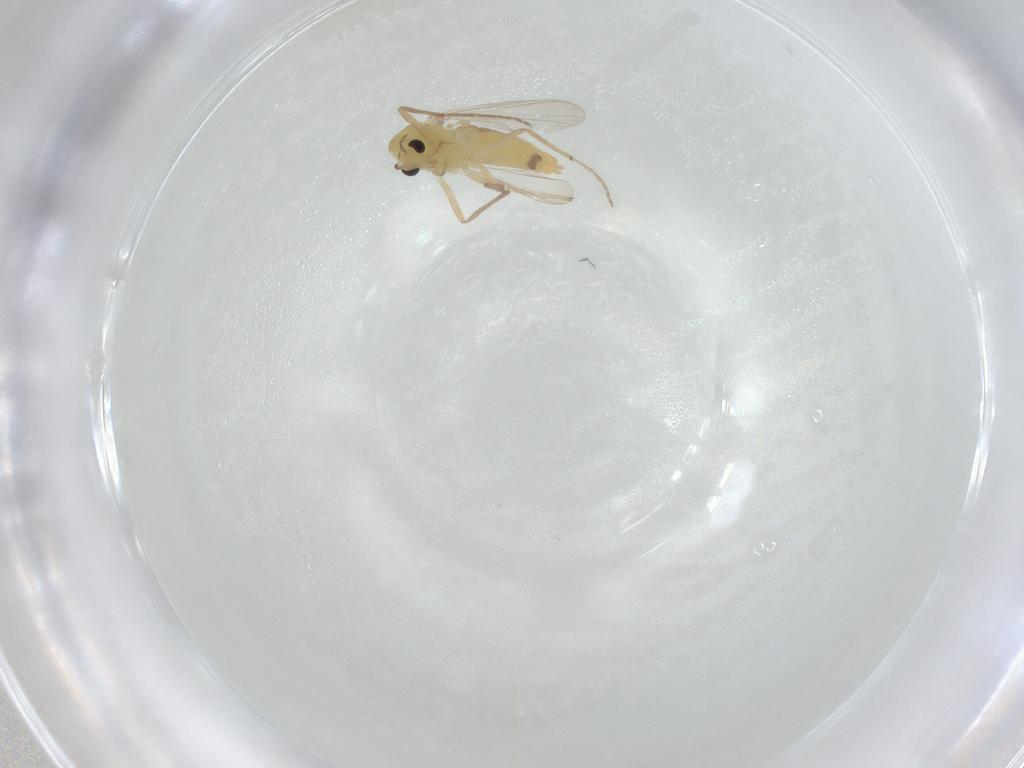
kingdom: Animalia
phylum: Arthropoda
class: Insecta
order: Diptera
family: Chironomidae
